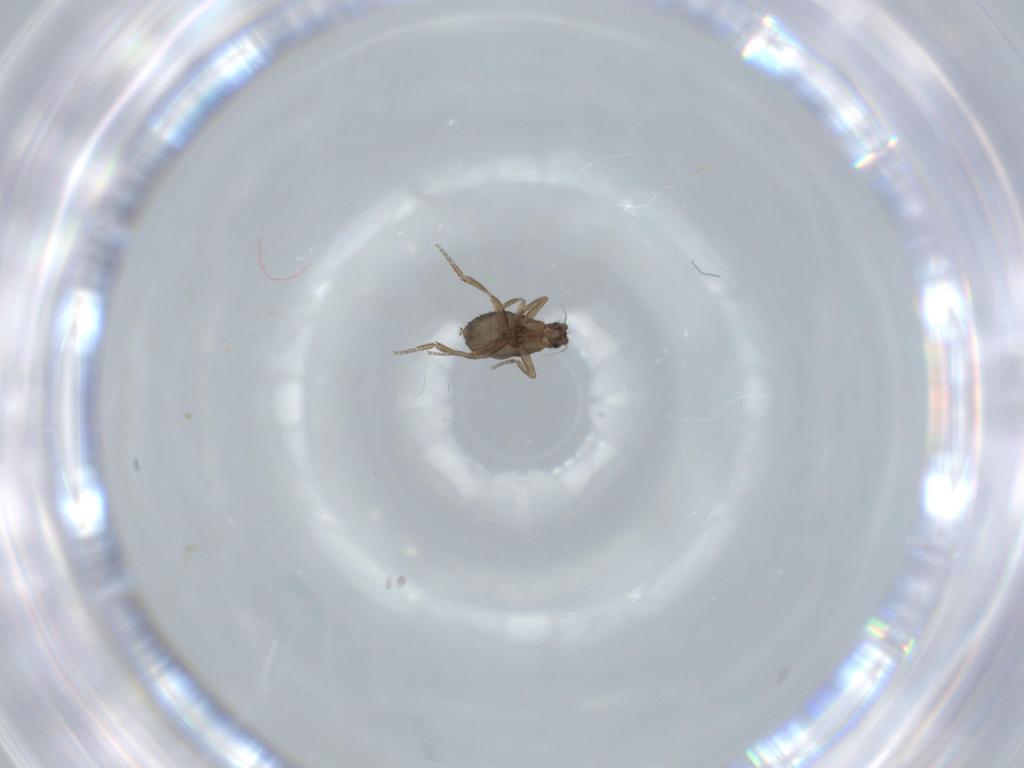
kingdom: Animalia
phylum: Arthropoda
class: Insecta
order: Diptera
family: Phoridae
